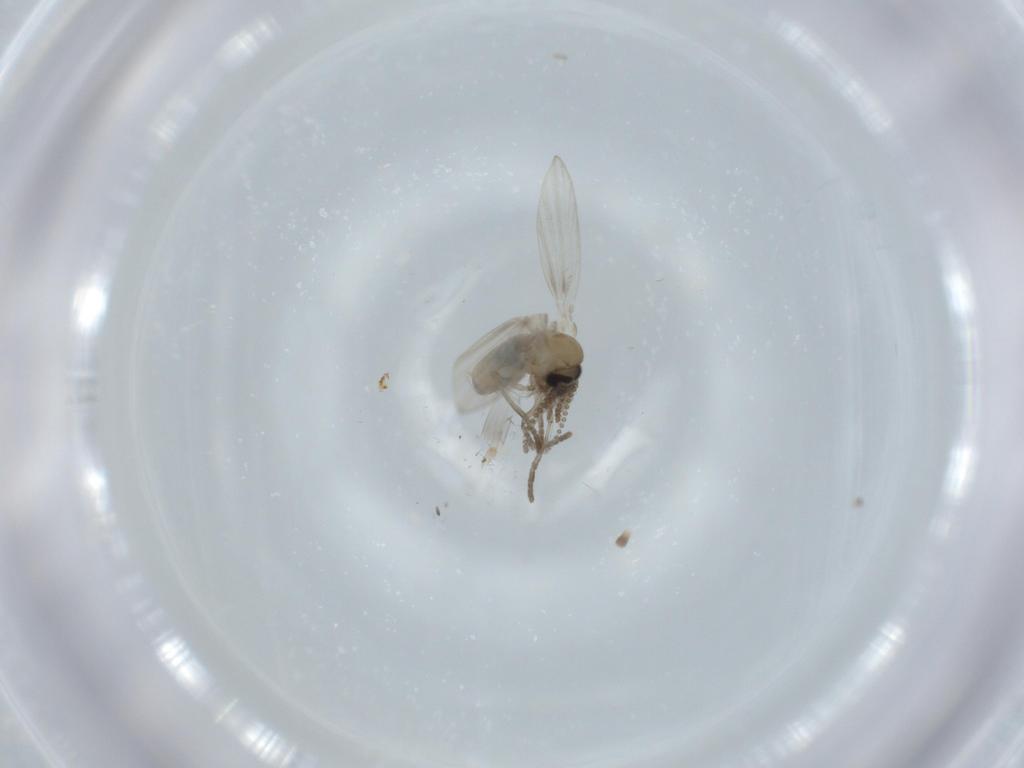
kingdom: Animalia
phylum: Arthropoda
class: Insecta
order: Diptera
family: Psychodidae
